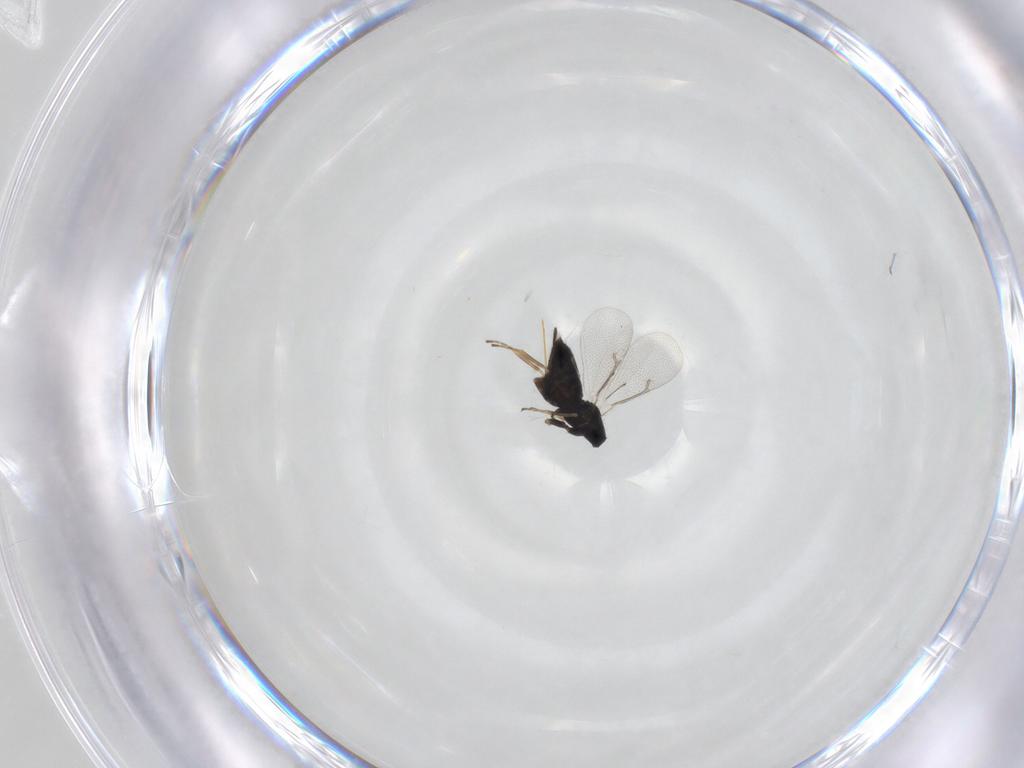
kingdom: Animalia
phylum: Arthropoda
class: Insecta
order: Hymenoptera
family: Eulophidae
